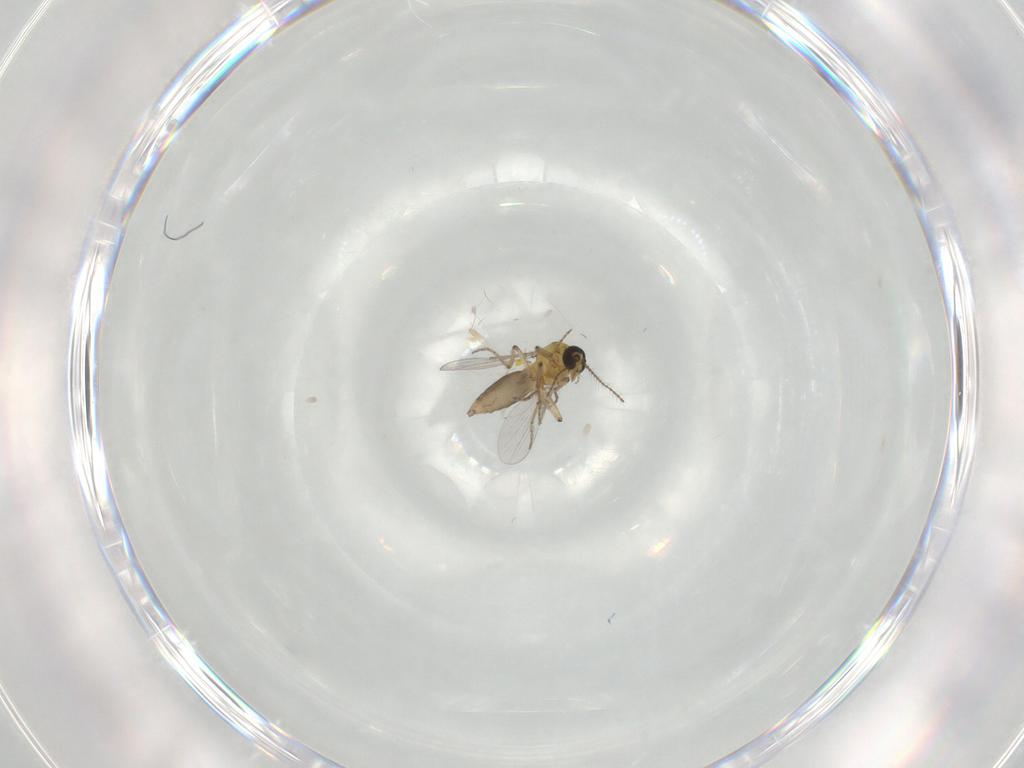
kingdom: Animalia
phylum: Arthropoda
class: Insecta
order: Diptera
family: Ceratopogonidae
